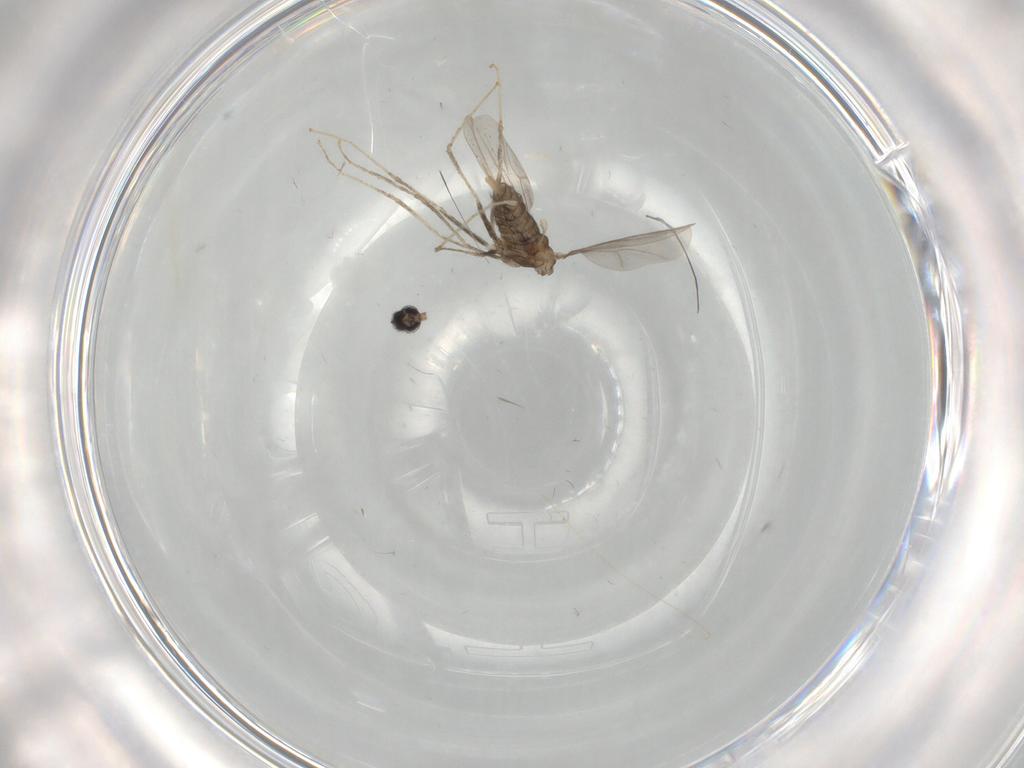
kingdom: Animalia
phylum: Arthropoda
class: Insecta
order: Diptera
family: Cecidomyiidae
